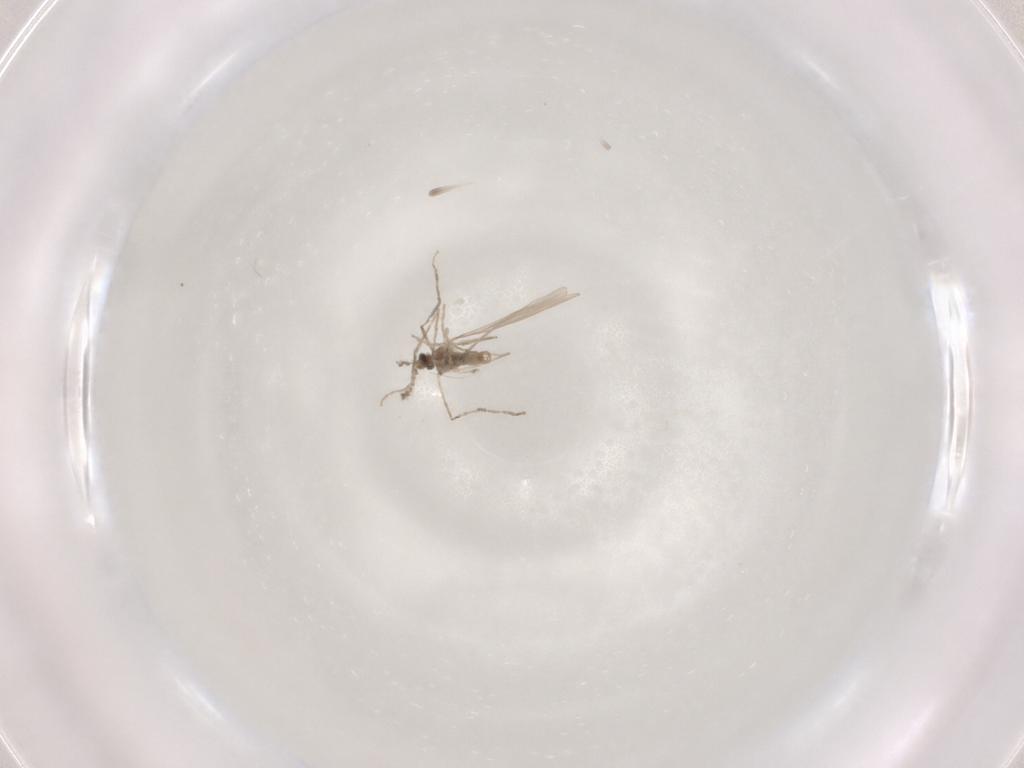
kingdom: Animalia
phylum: Arthropoda
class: Insecta
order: Diptera
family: Cecidomyiidae
